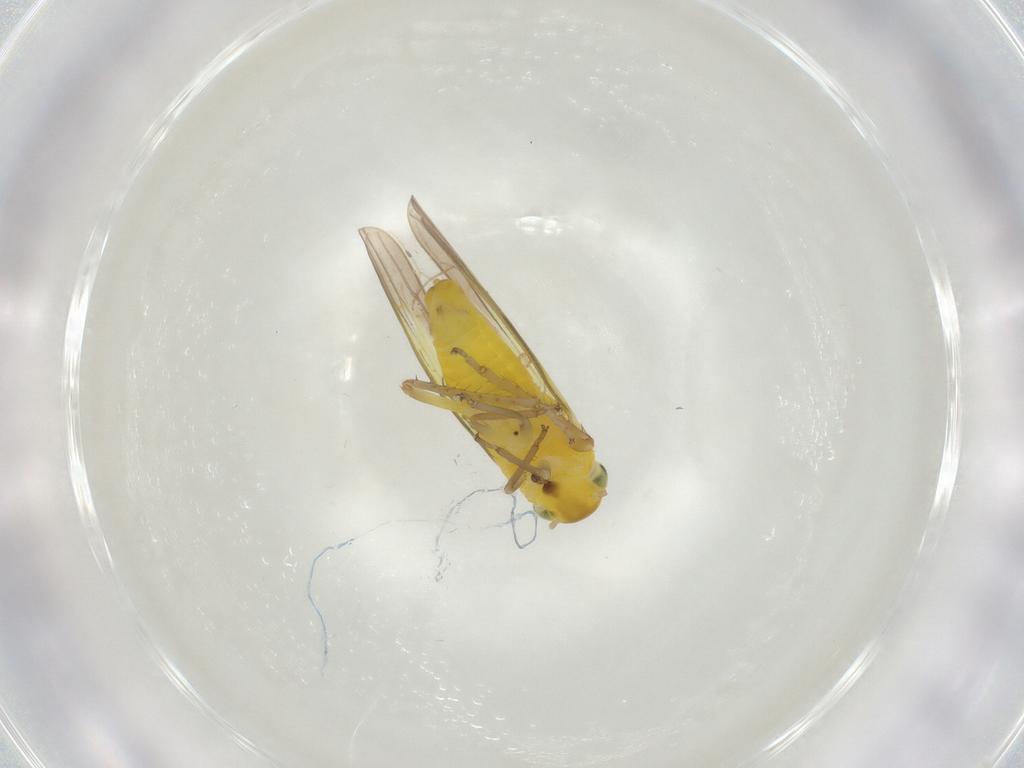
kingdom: Animalia
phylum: Arthropoda
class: Insecta
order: Hemiptera
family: Cicadellidae
